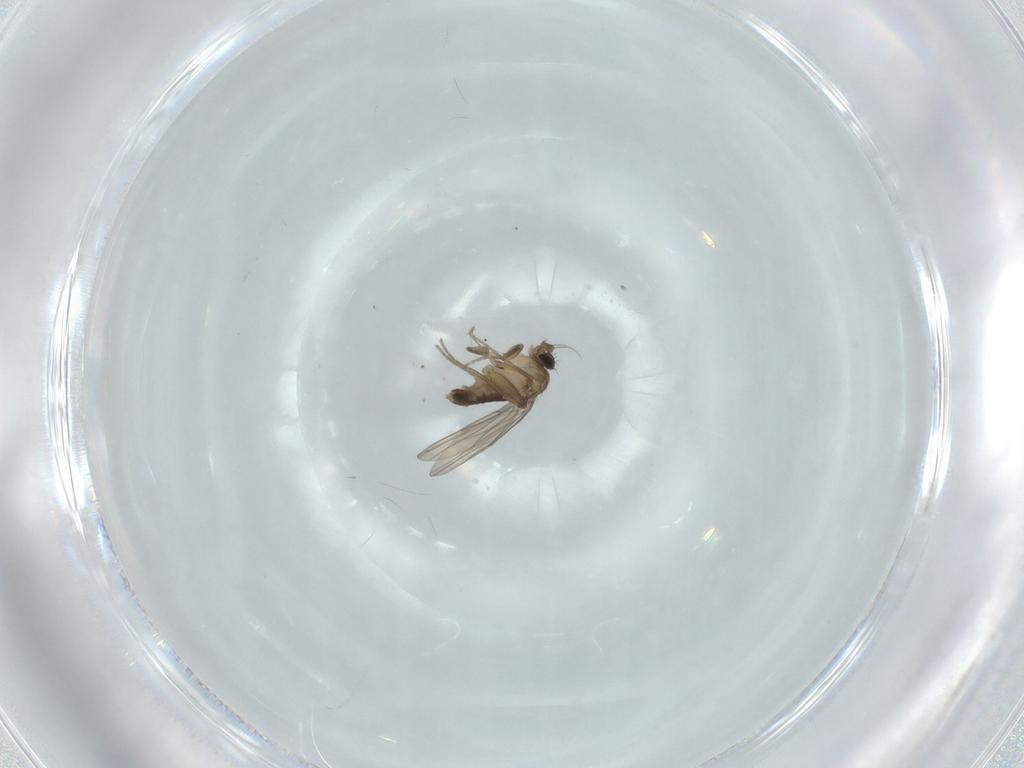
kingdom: Animalia
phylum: Arthropoda
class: Insecta
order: Diptera
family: Phoridae
